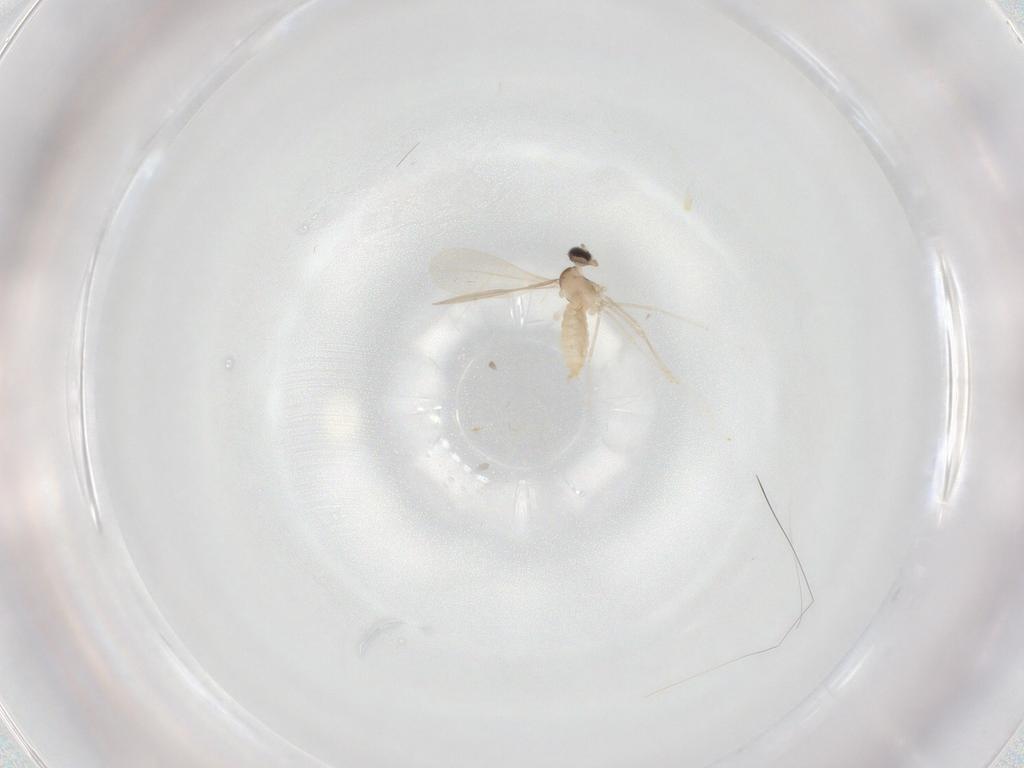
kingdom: Animalia
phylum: Arthropoda
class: Insecta
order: Diptera
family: Cecidomyiidae
